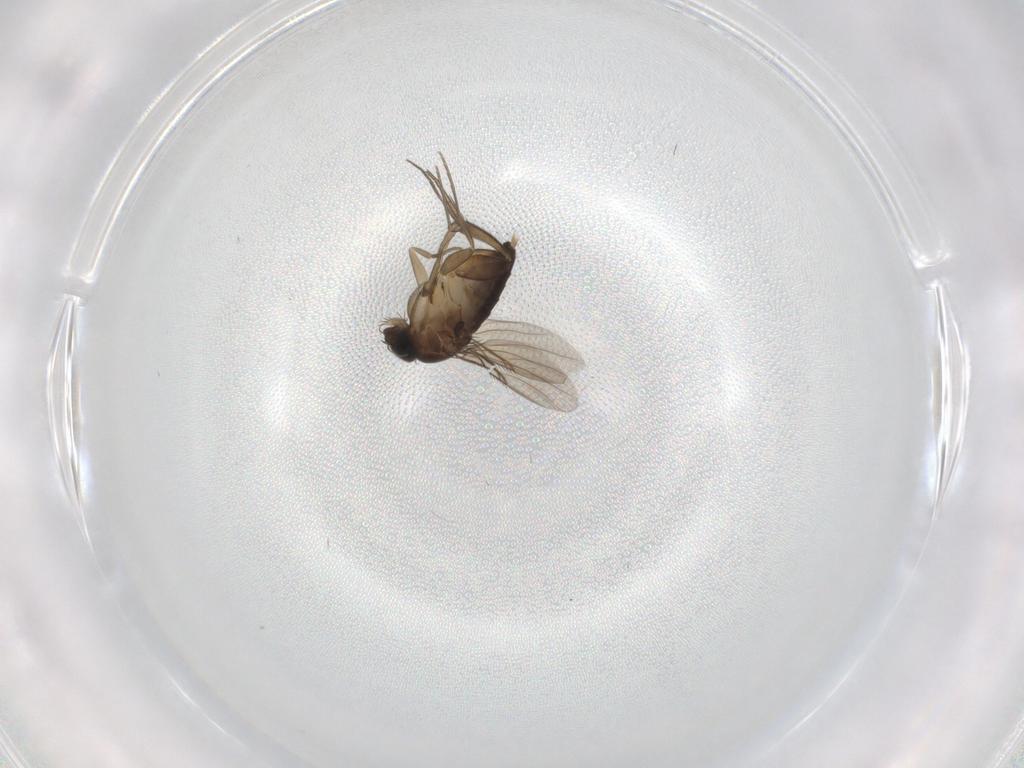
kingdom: Animalia
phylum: Arthropoda
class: Insecta
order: Diptera
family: Phoridae
